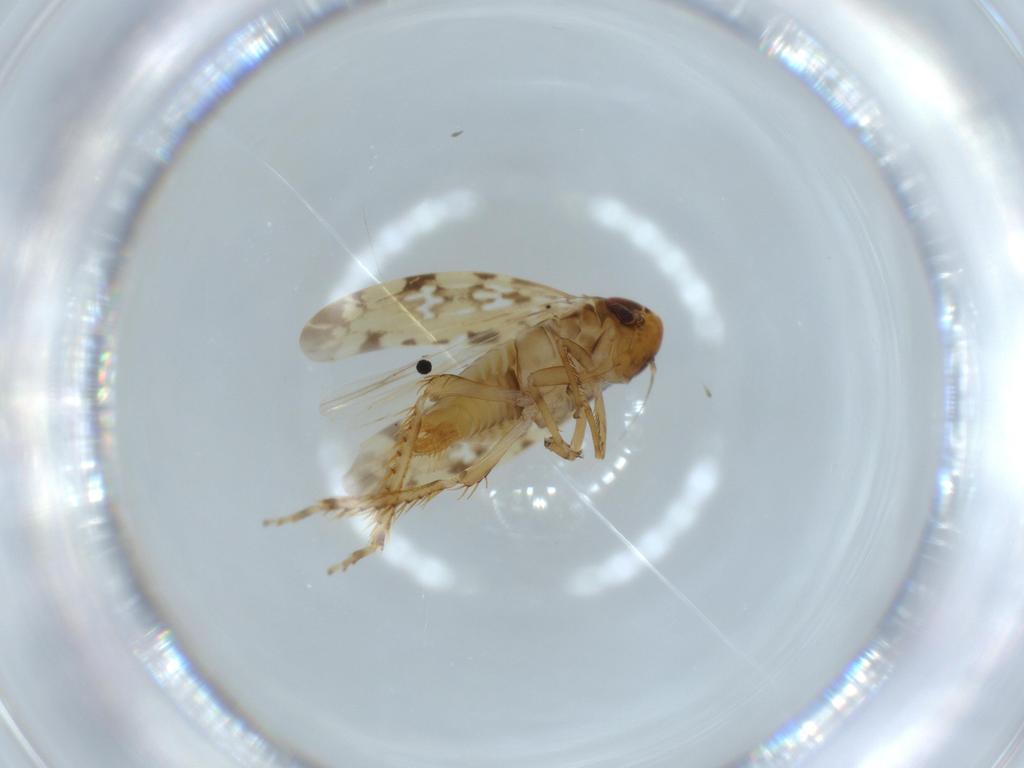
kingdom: Animalia
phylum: Arthropoda
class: Insecta
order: Hemiptera
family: Cicadellidae
